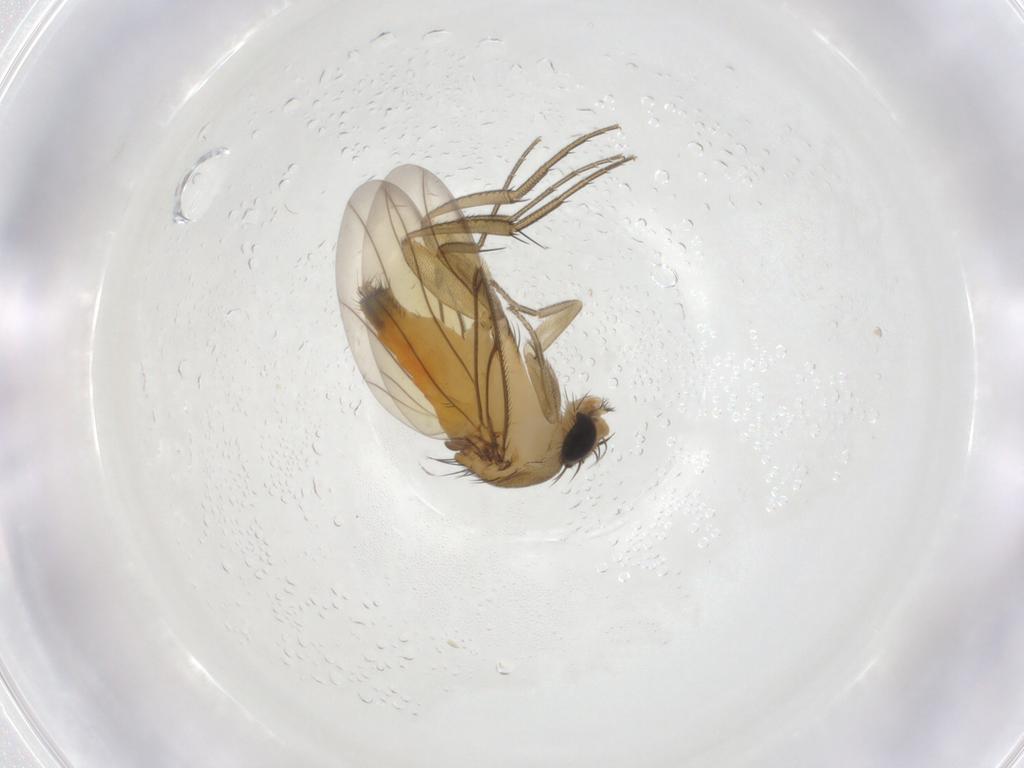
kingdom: Animalia
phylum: Arthropoda
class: Insecta
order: Diptera
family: Chironomidae
